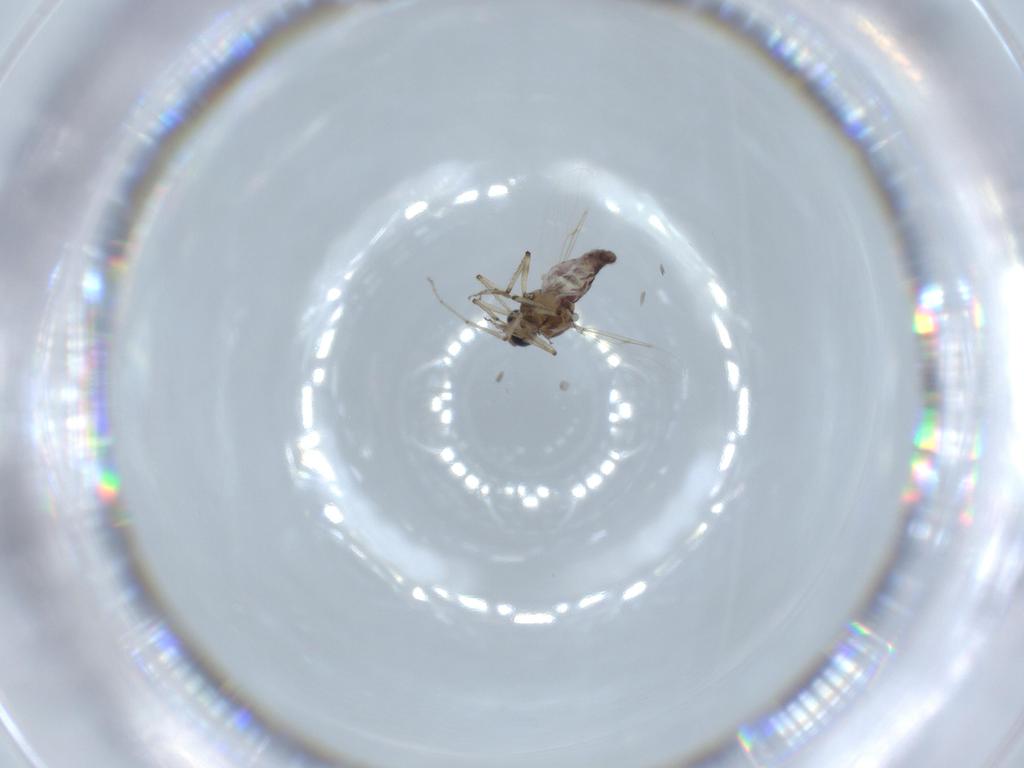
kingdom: Animalia
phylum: Arthropoda
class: Insecta
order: Diptera
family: Ceratopogonidae
